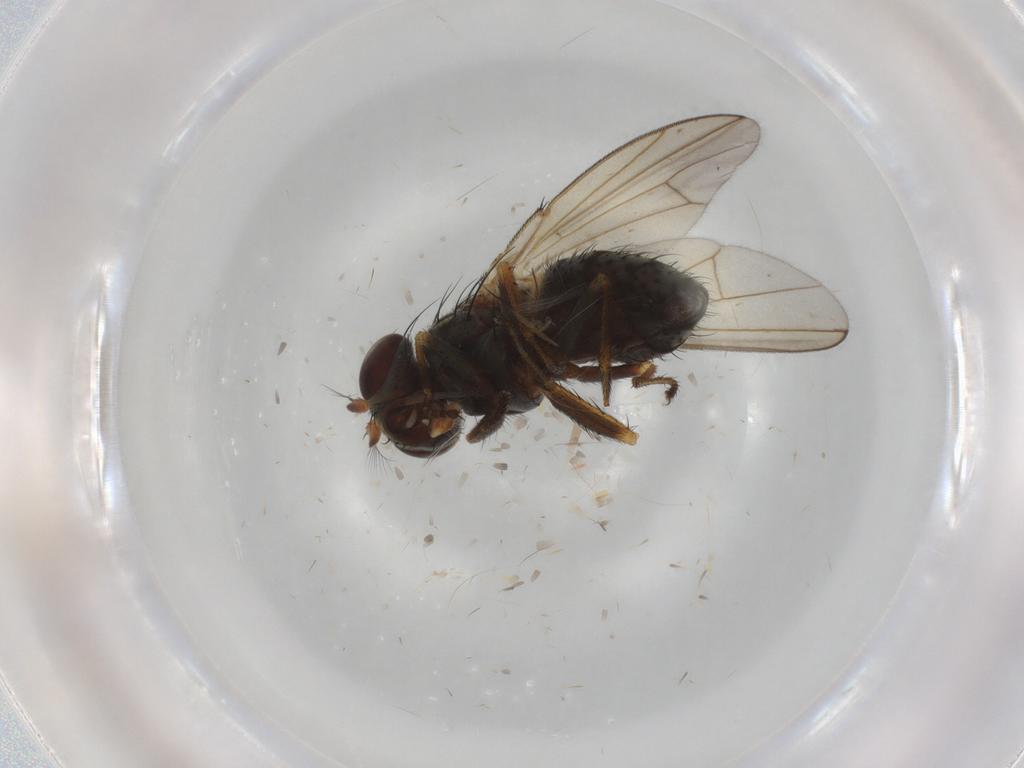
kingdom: Animalia
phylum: Arthropoda
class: Insecta
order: Diptera
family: Ephydridae
